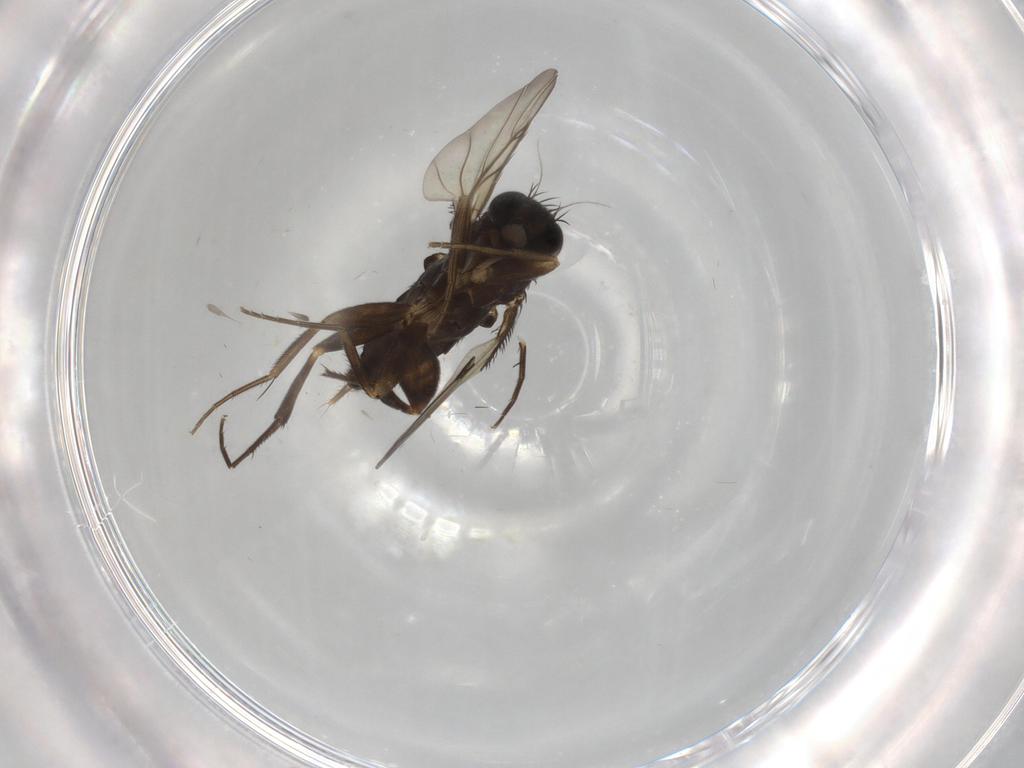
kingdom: Animalia
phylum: Arthropoda
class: Insecta
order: Diptera
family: Phoridae
